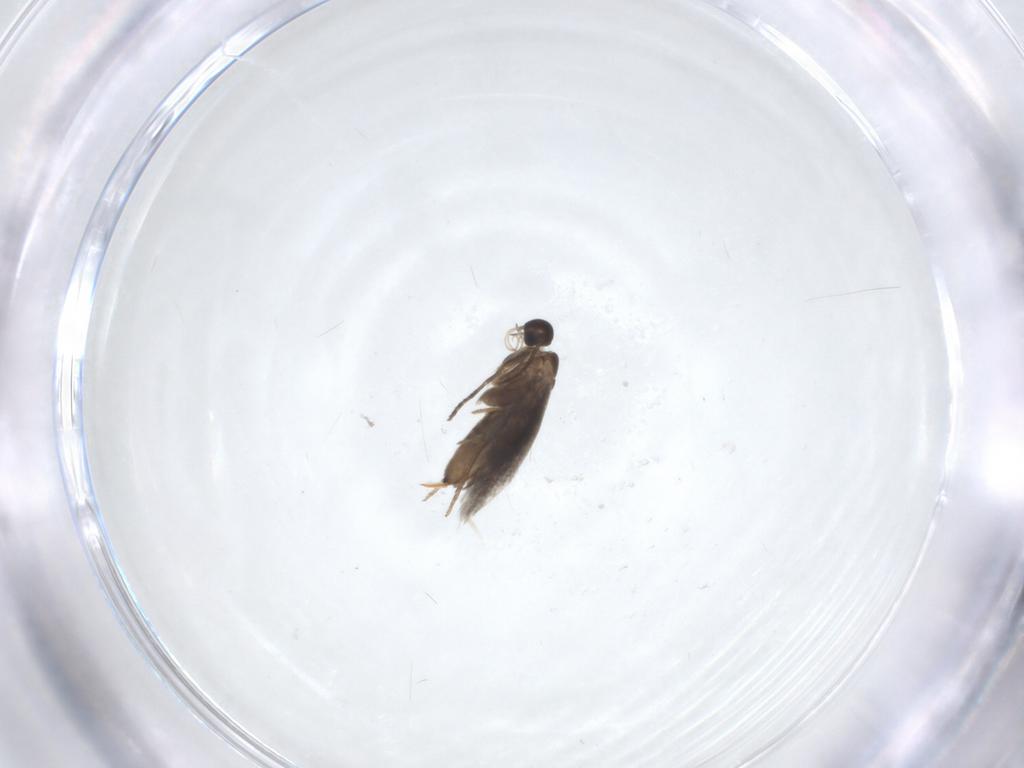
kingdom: Animalia
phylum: Arthropoda
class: Insecta
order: Lepidoptera
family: Heliozelidae
